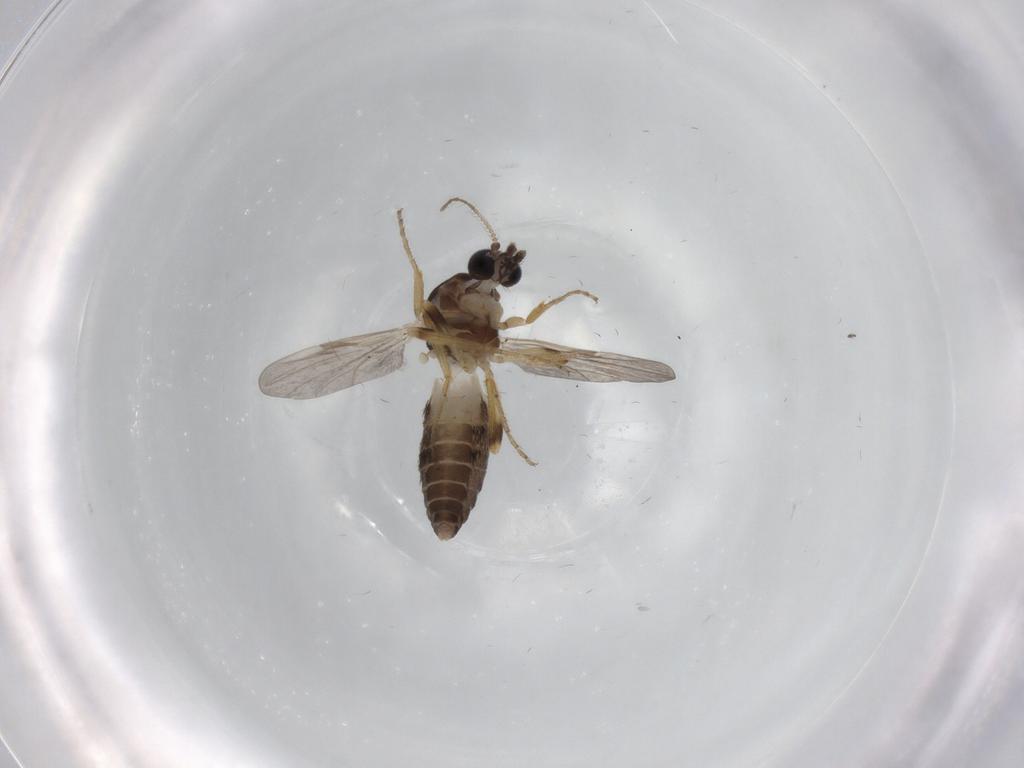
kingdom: Animalia
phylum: Arthropoda
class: Insecta
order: Diptera
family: Ceratopogonidae
